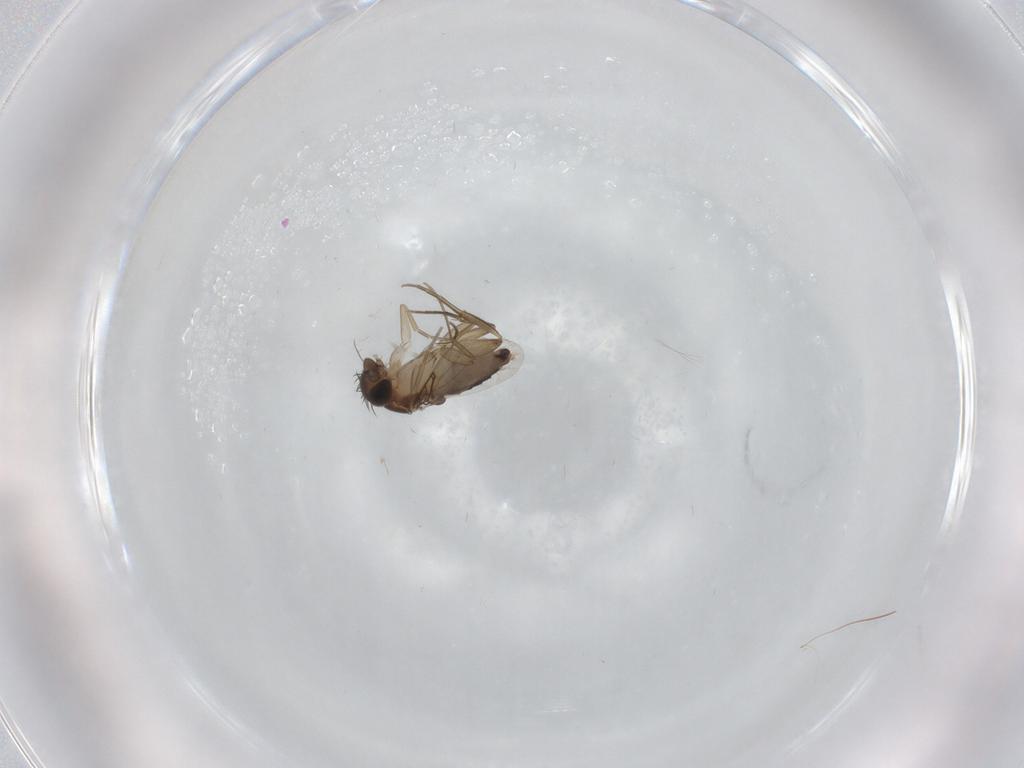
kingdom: Animalia
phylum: Arthropoda
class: Insecta
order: Diptera
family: Phoridae
